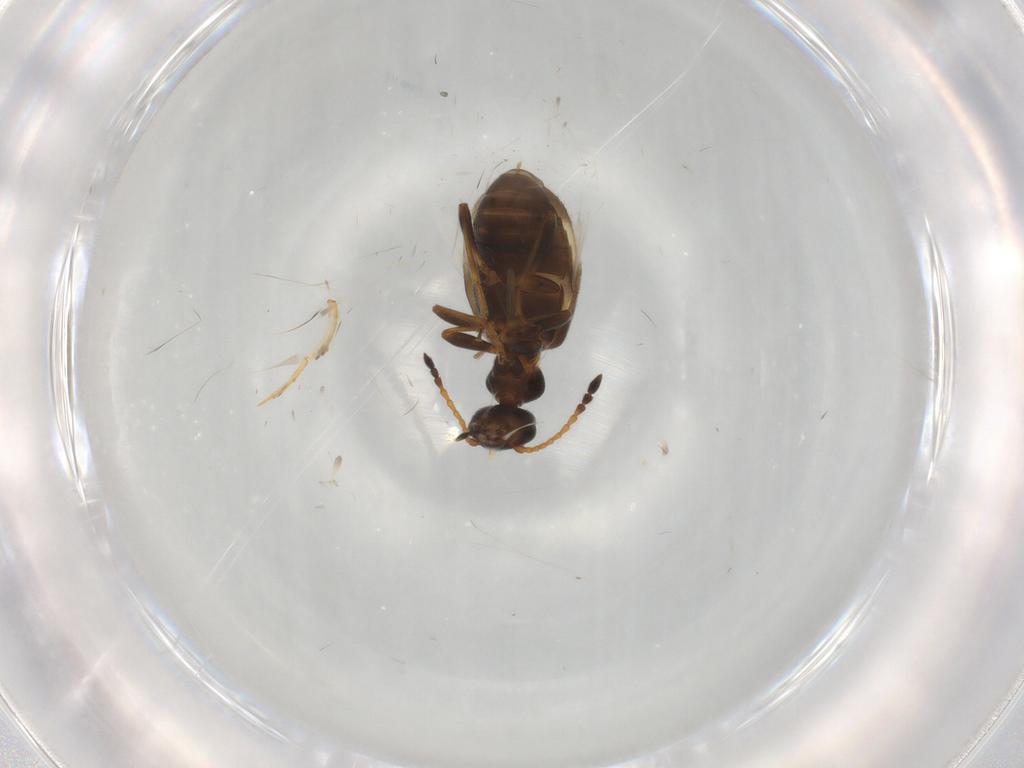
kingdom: Animalia
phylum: Arthropoda
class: Insecta
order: Coleoptera
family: Anthicidae
